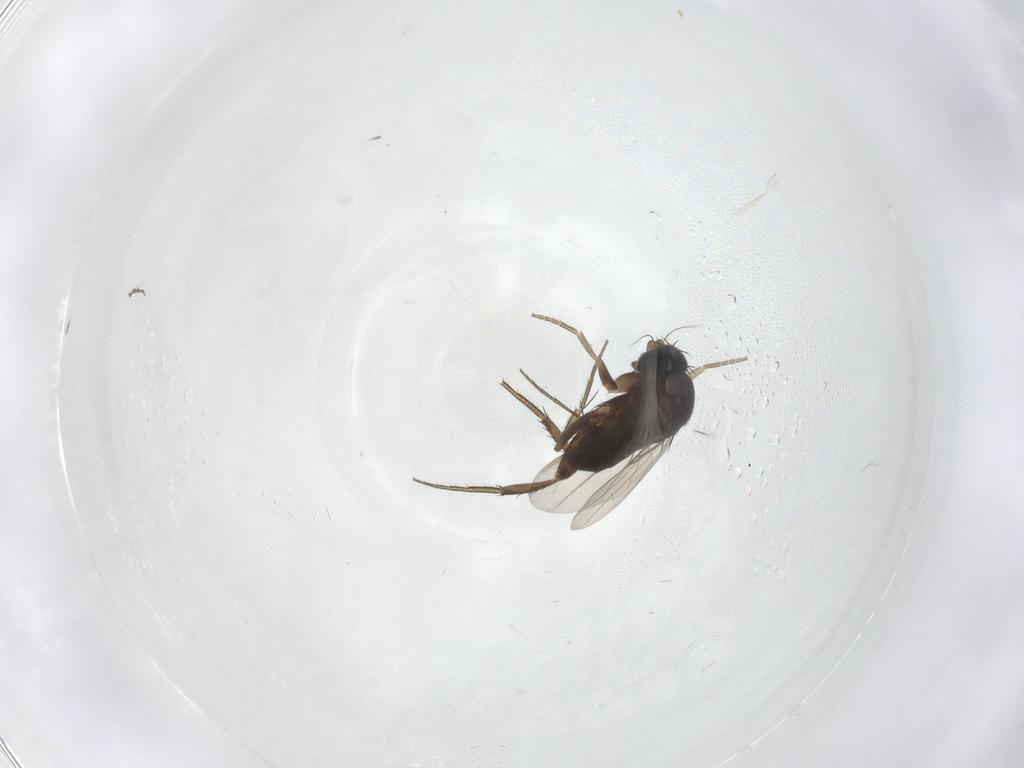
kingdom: Animalia
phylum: Arthropoda
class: Insecta
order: Diptera
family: Phoridae
